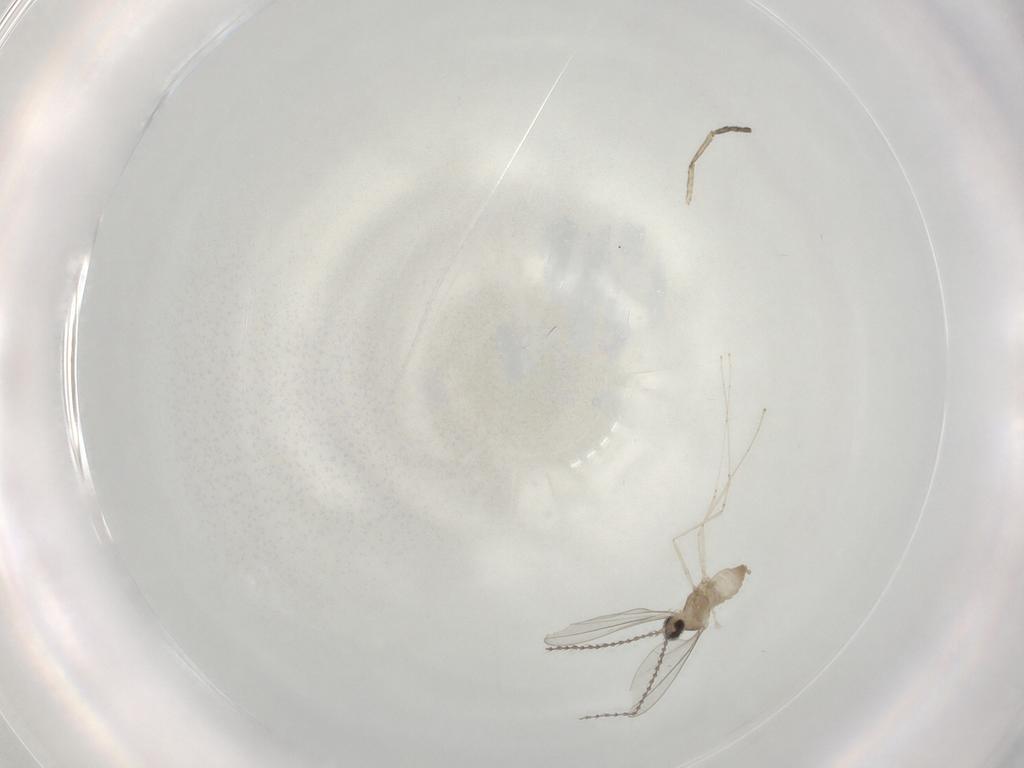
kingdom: Animalia
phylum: Arthropoda
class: Insecta
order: Diptera
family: Cecidomyiidae
